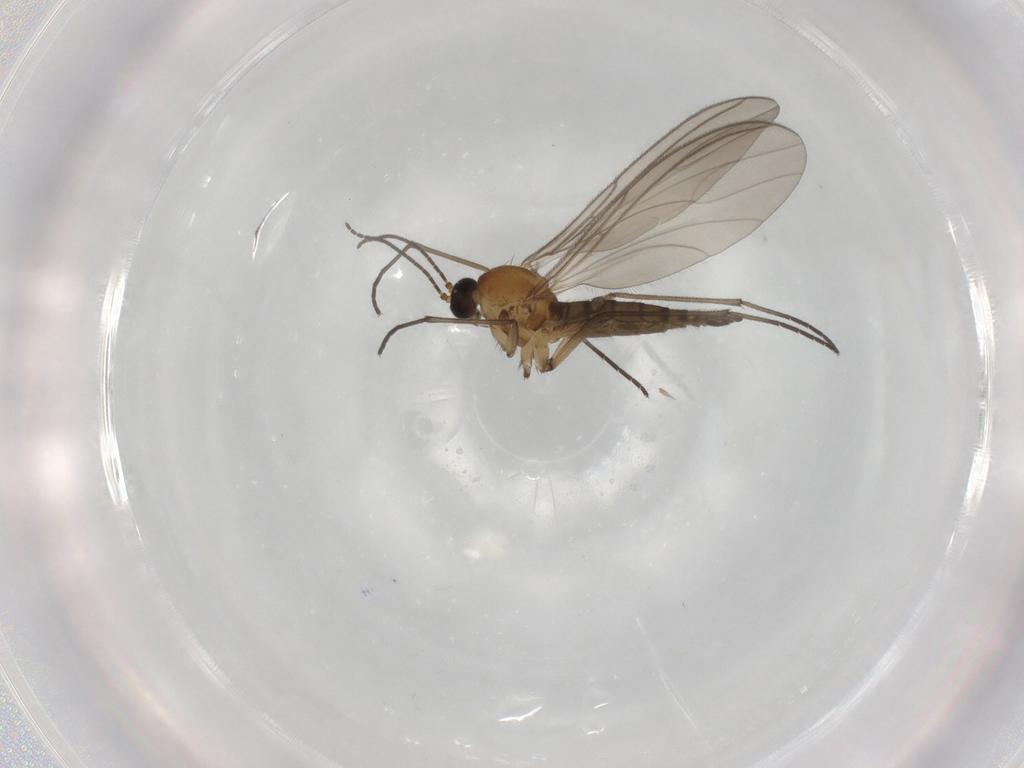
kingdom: Animalia
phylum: Arthropoda
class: Insecta
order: Diptera
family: Sciaridae
